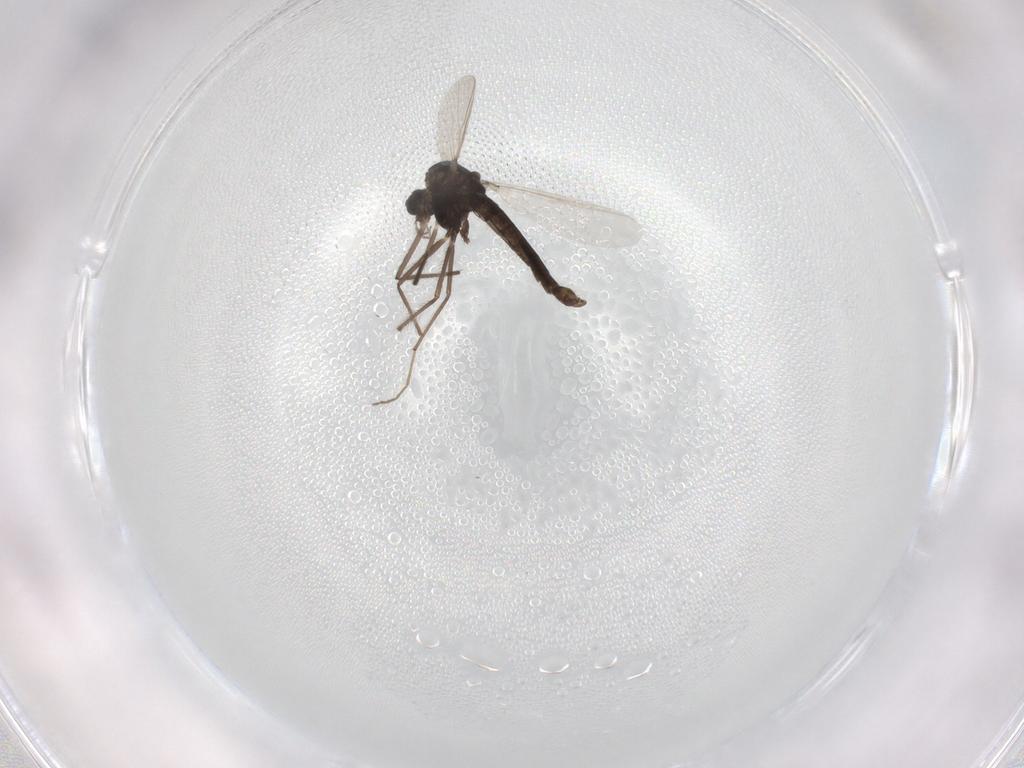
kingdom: Animalia
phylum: Arthropoda
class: Insecta
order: Diptera
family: Chironomidae
